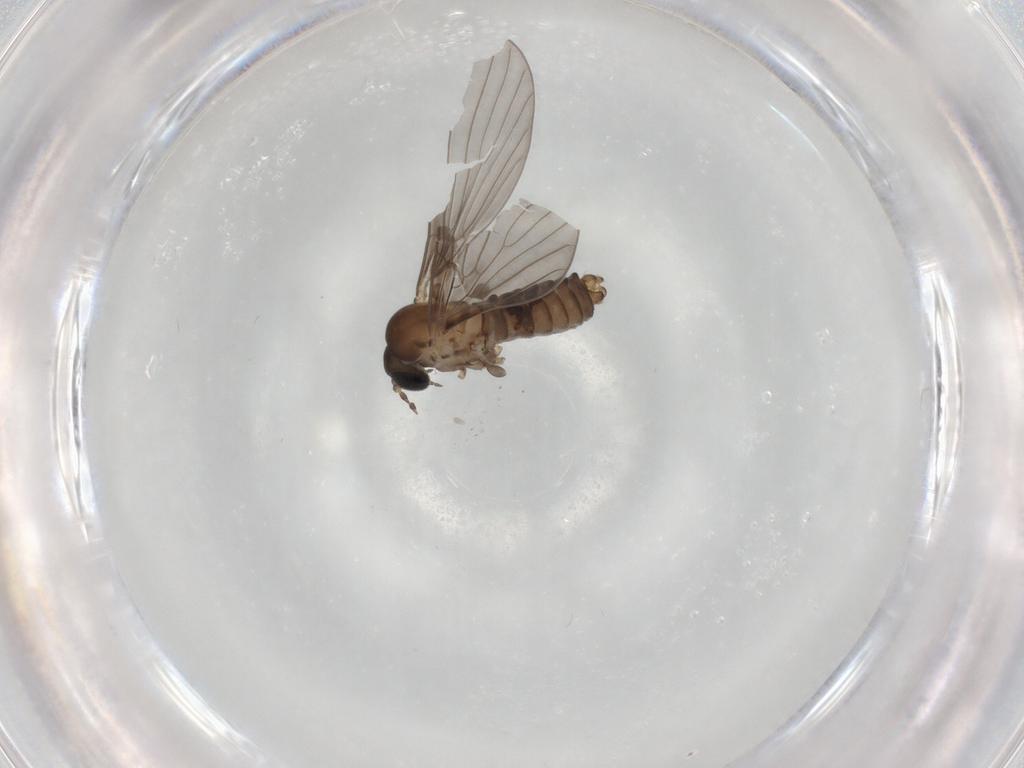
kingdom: Animalia
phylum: Arthropoda
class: Insecta
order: Diptera
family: Psychodidae
